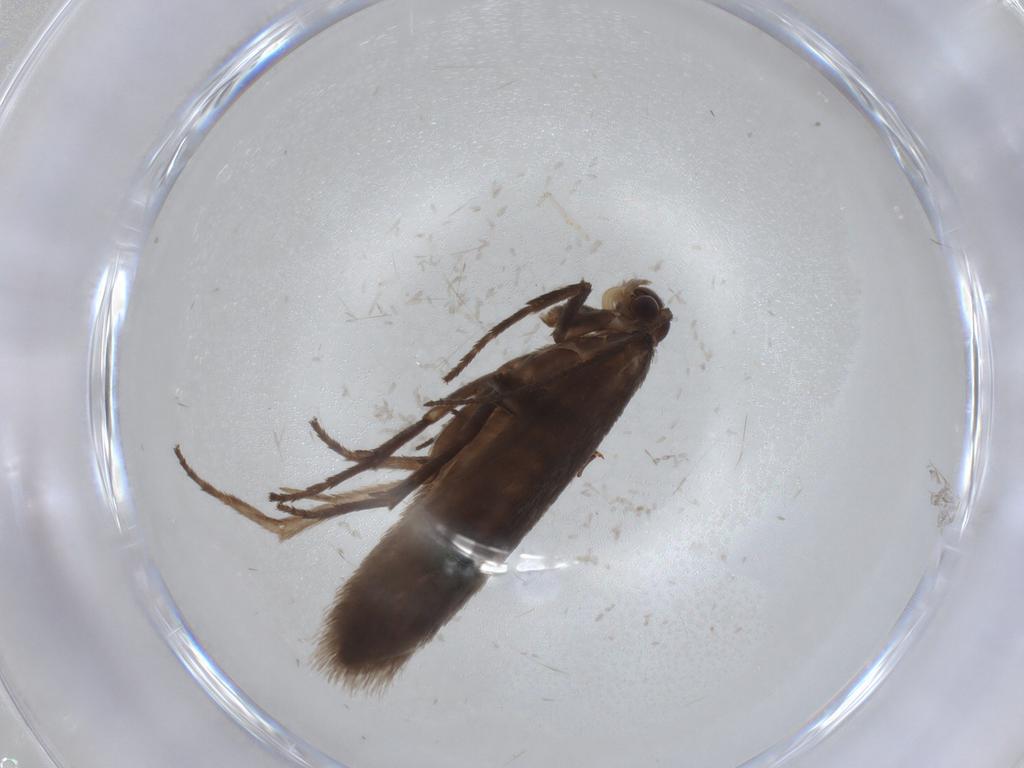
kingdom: Animalia
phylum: Arthropoda
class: Insecta
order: Lepidoptera
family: Limacodidae
